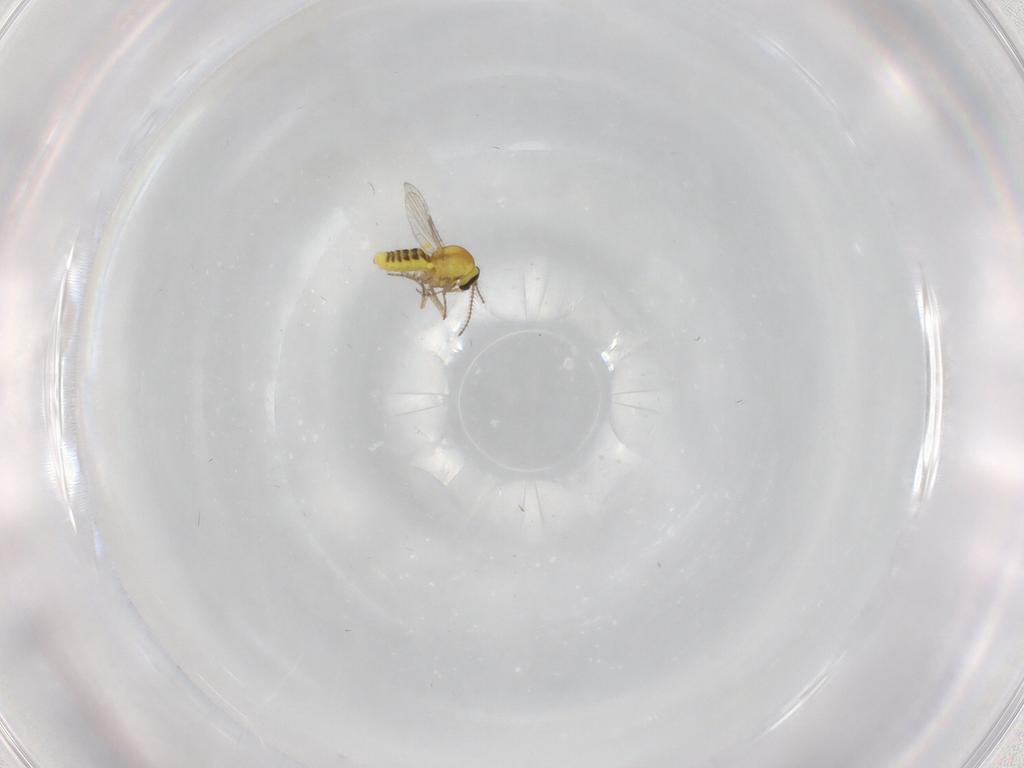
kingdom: Animalia
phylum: Arthropoda
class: Insecta
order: Diptera
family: Ceratopogonidae
